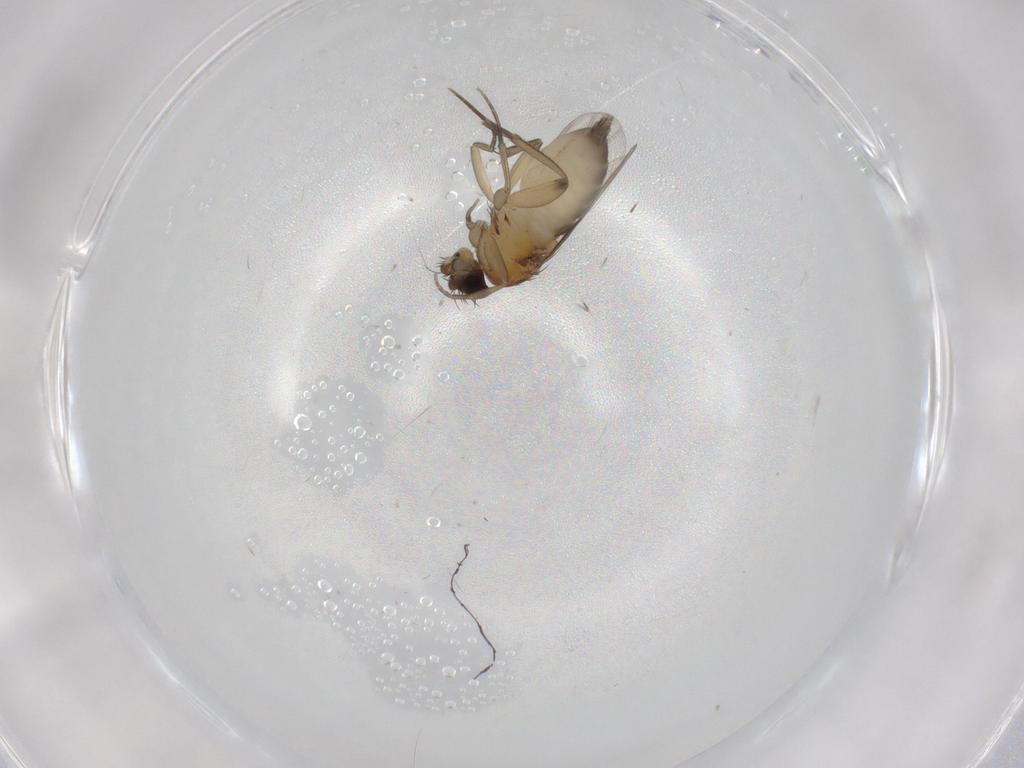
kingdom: Animalia
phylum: Arthropoda
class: Insecta
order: Diptera
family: Phoridae
